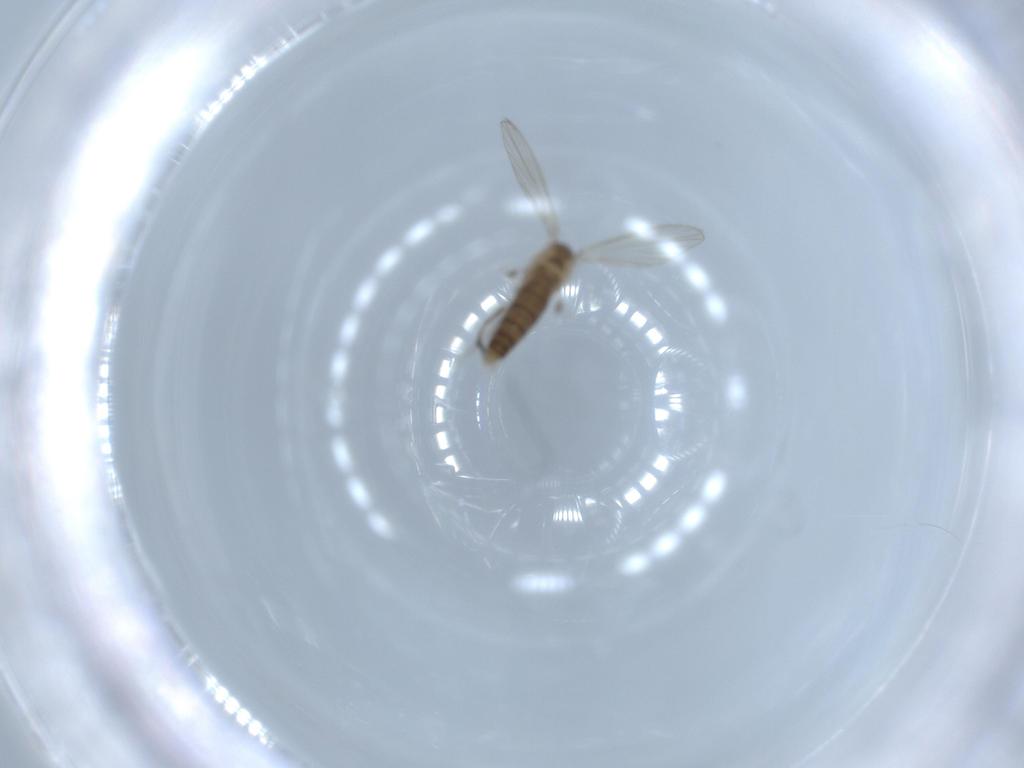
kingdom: Animalia
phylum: Arthropoda
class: Insecta
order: Diptera
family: Psychodidae
